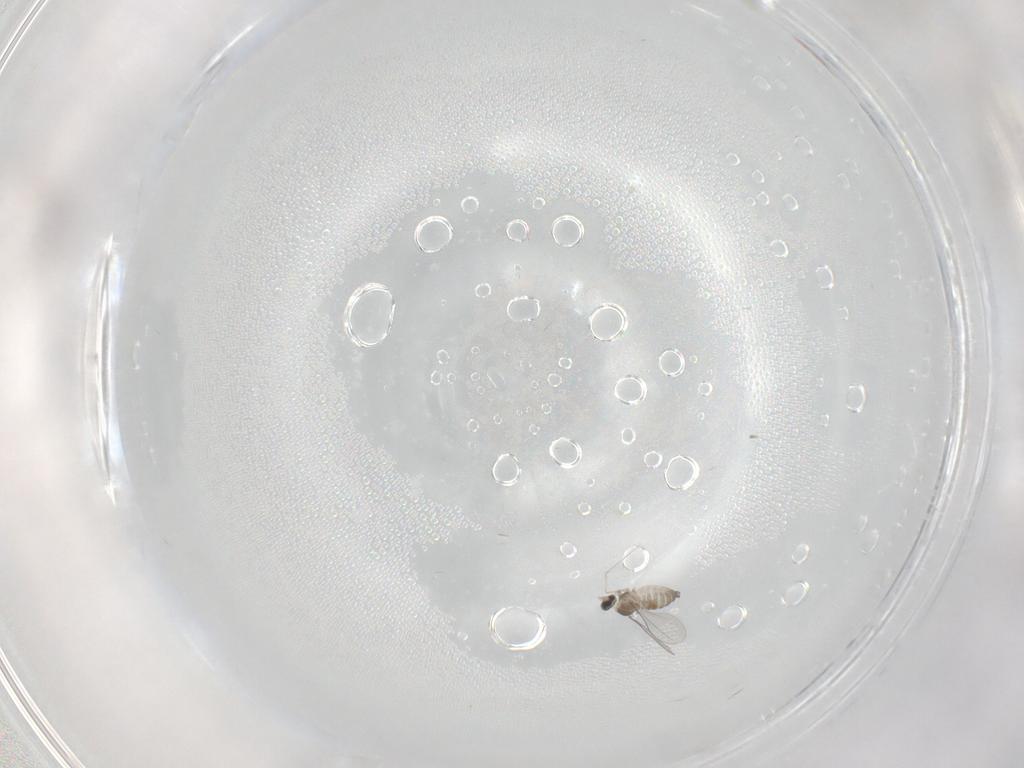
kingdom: Animalia
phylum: Arthropoda
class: Insecta
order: Diptera
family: Cecidomyiidae
